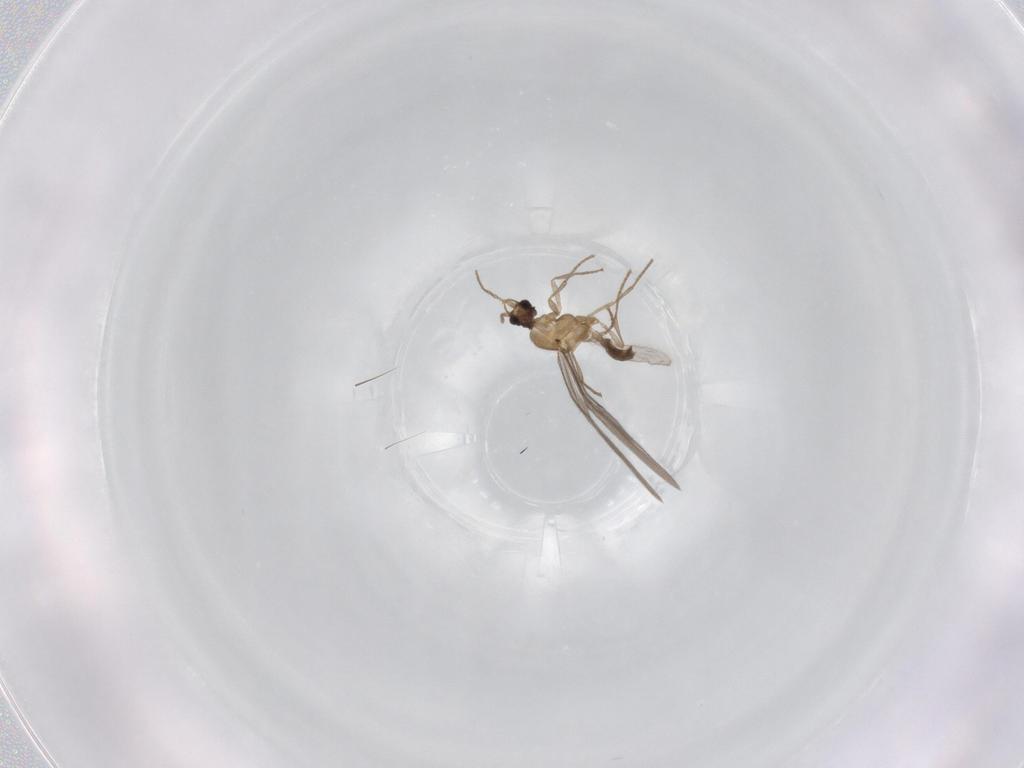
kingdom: Animalia
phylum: Arthropoda
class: Insecta
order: Hymenoptera
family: Formicidae
